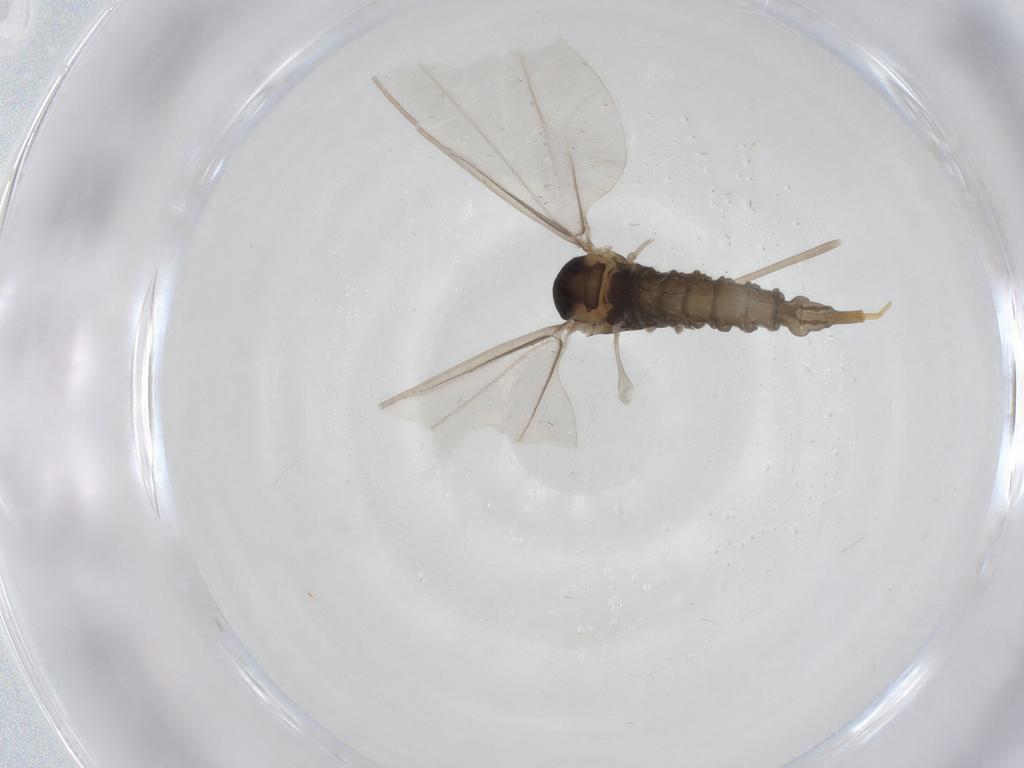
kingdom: Animalia
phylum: Arthropoda
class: Insecta
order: Diptera
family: Cecidomyiidae
